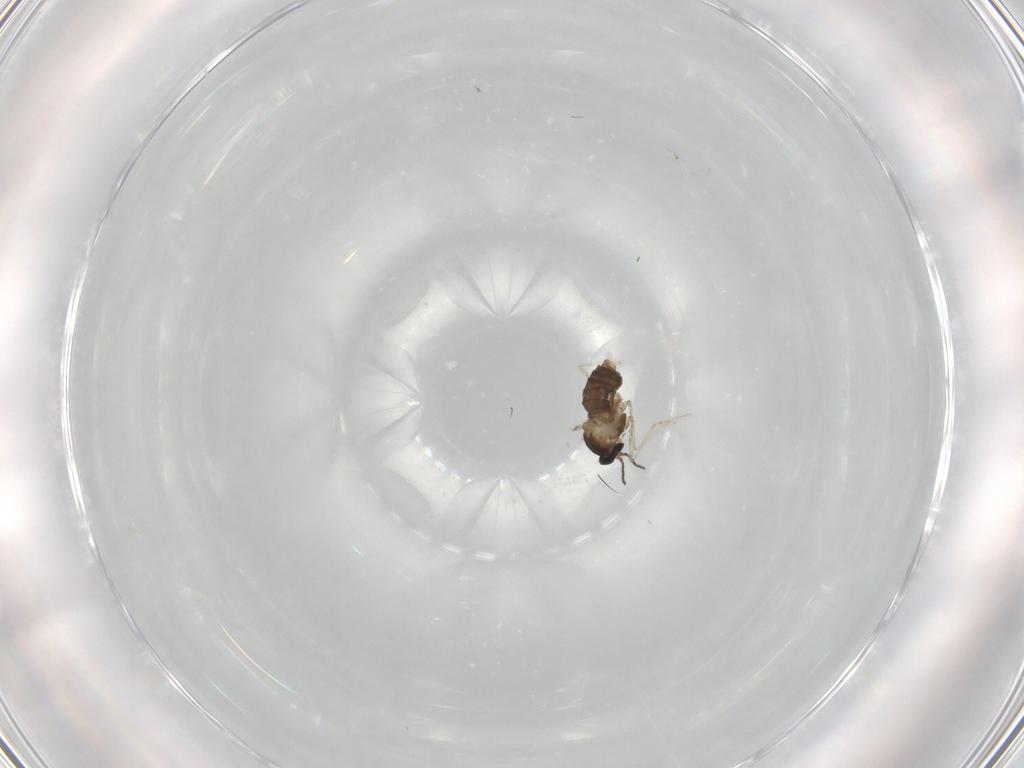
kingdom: Animalia
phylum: Arthropoda
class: Insecta
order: Diptera
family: Cecidomyiidae
